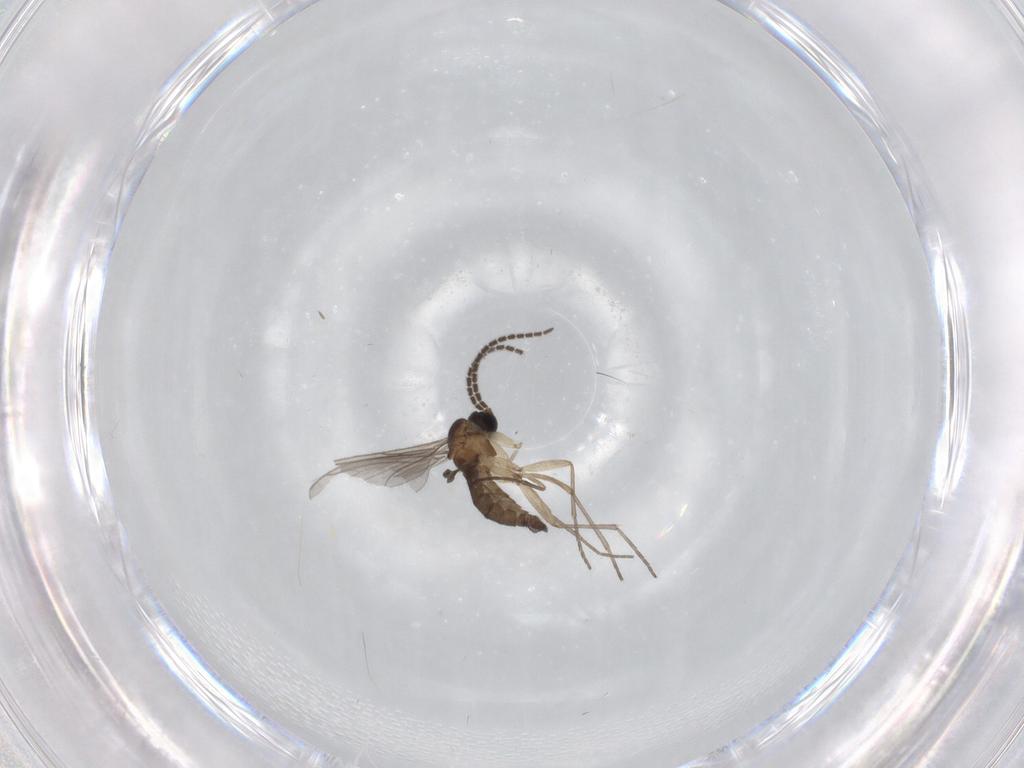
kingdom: Animalia
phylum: Arthropoda
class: Insecta
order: Diptera
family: Sciaridae
